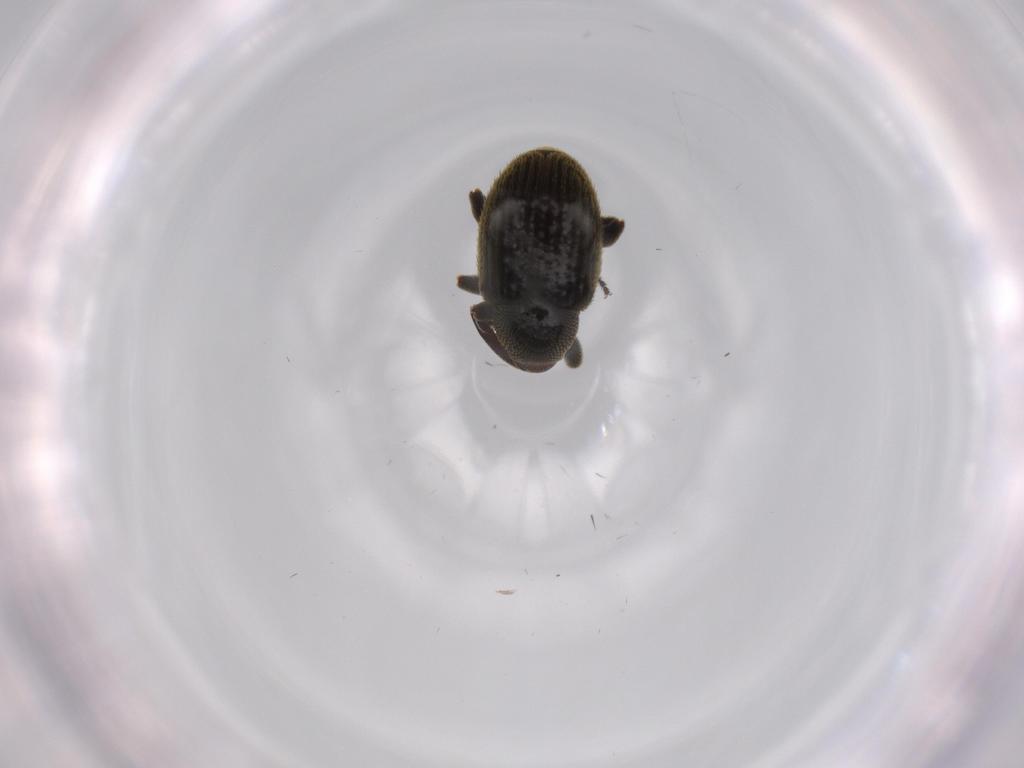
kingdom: Animalia
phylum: Arthropoda
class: Insecta
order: Coleoptera
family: Curculionidae
